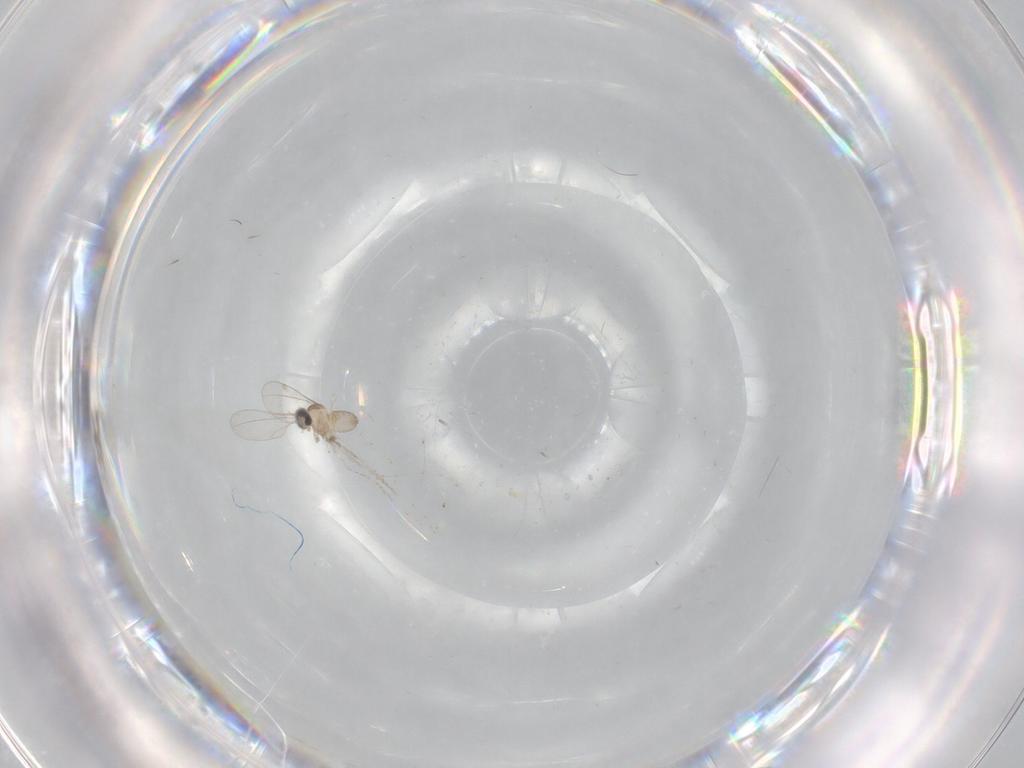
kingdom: Animalia
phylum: Arthropoda
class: Insecta
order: Diptera
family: Cecidomyiidae
